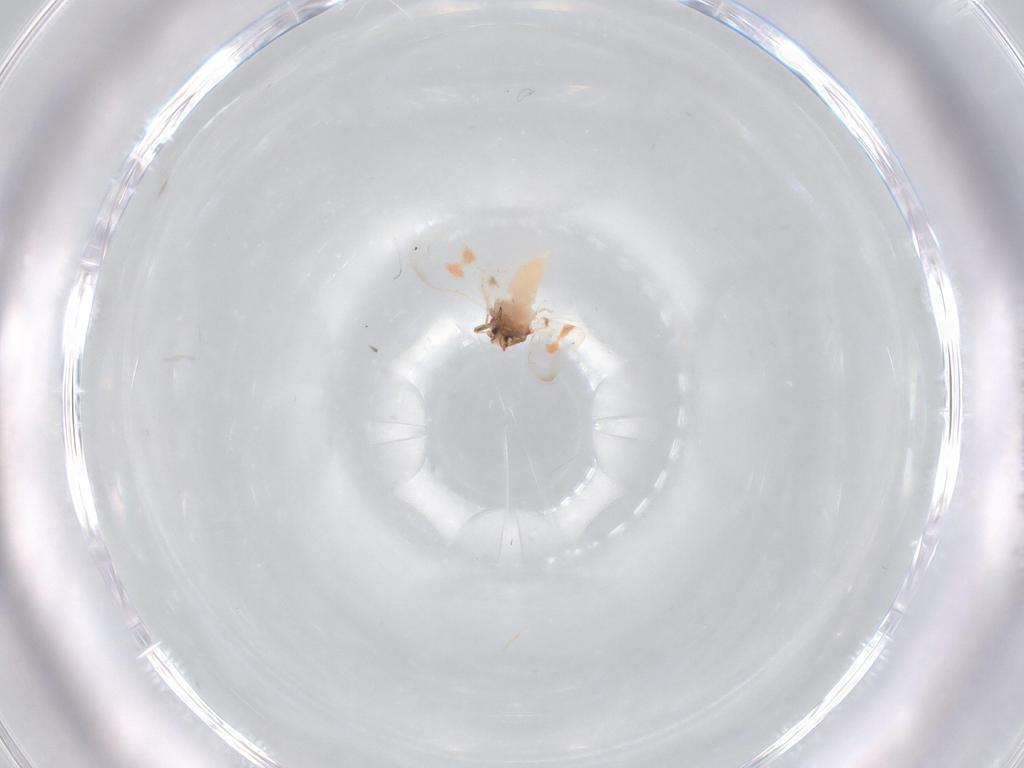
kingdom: Animalia
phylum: Arthropoda
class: Insecta
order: Hemiptera
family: Aleyrodidae
